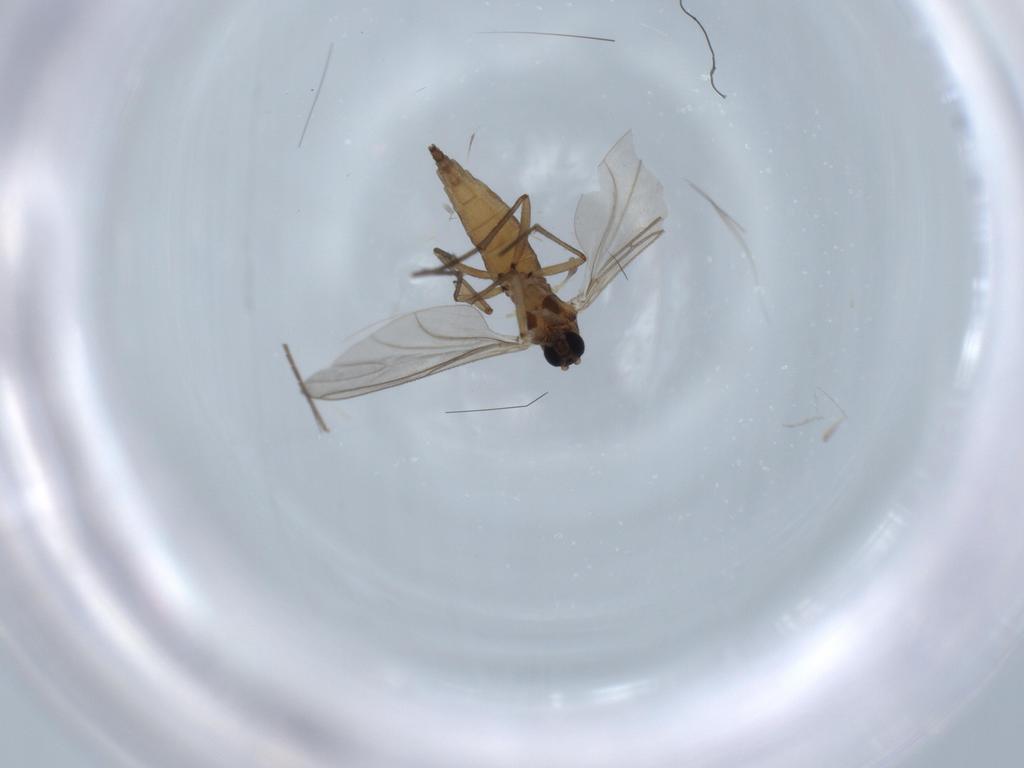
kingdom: Animalia
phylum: Arthropoda
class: Insecta
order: Diptera
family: Sciaridae
